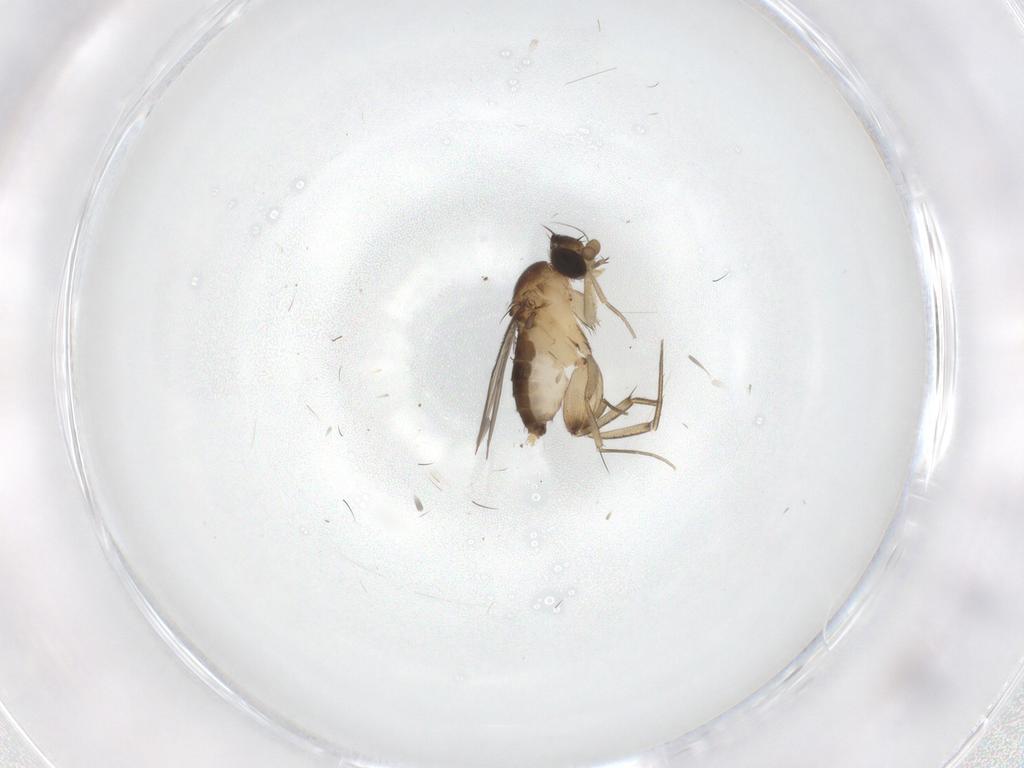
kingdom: Animalia
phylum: Arthropoda
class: Insecta
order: Diptera
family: Phoridae
